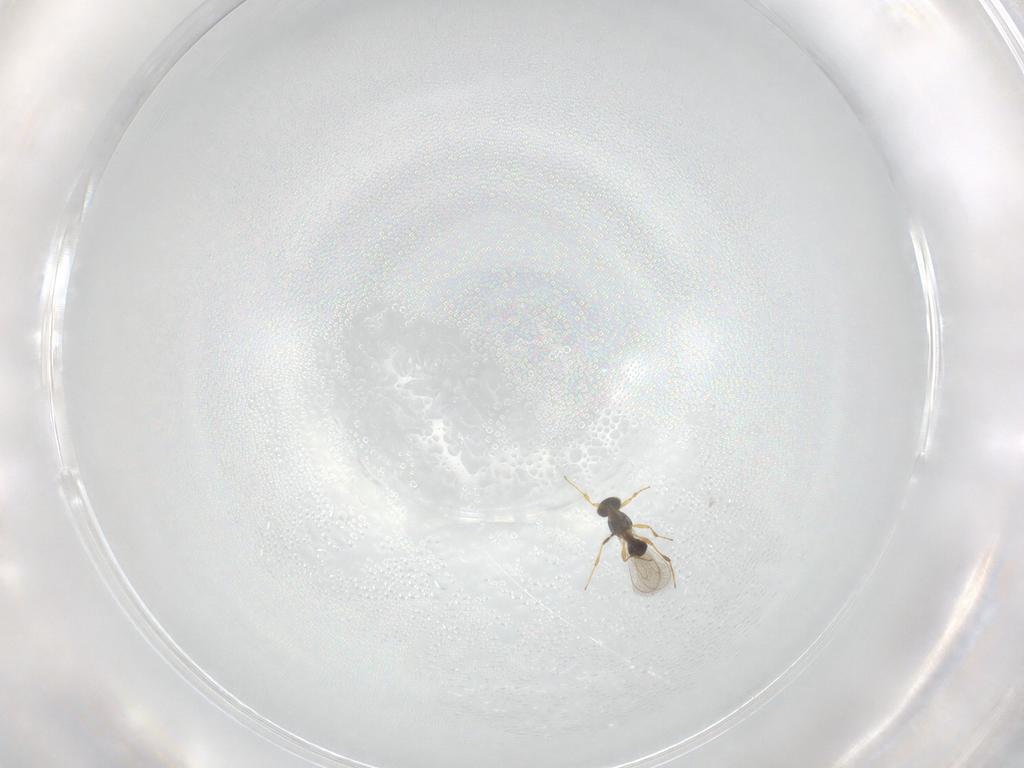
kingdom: Animalia
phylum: Arthropoda
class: Insecta
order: Hymenoptera
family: Platygastridae
